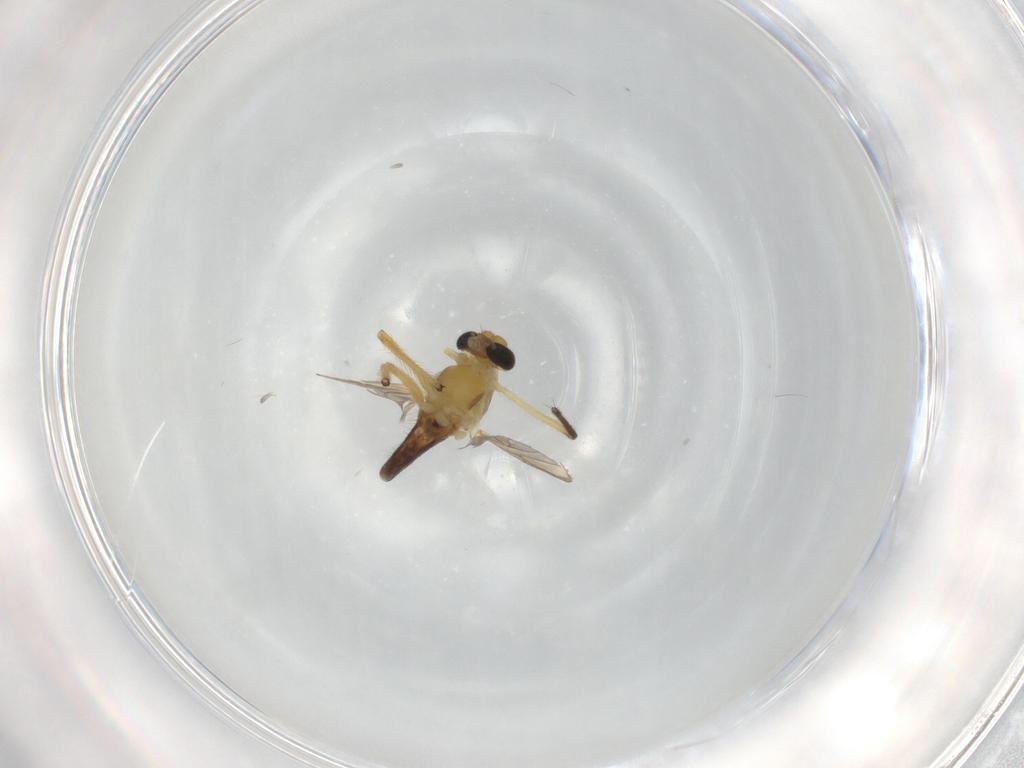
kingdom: Animalia
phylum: Arthropoda
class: Insecta
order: Diptera
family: Chironomidae
